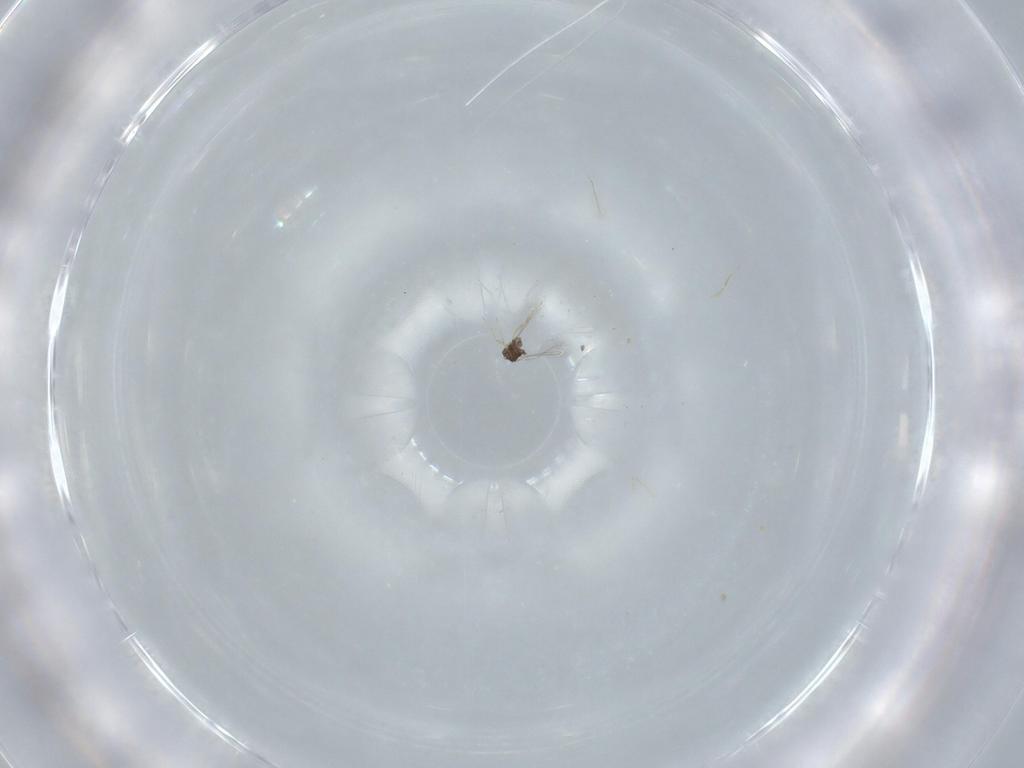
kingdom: Animalia
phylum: Arthropoda
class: Insecta
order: Hymenoptera
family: Mymaridae
